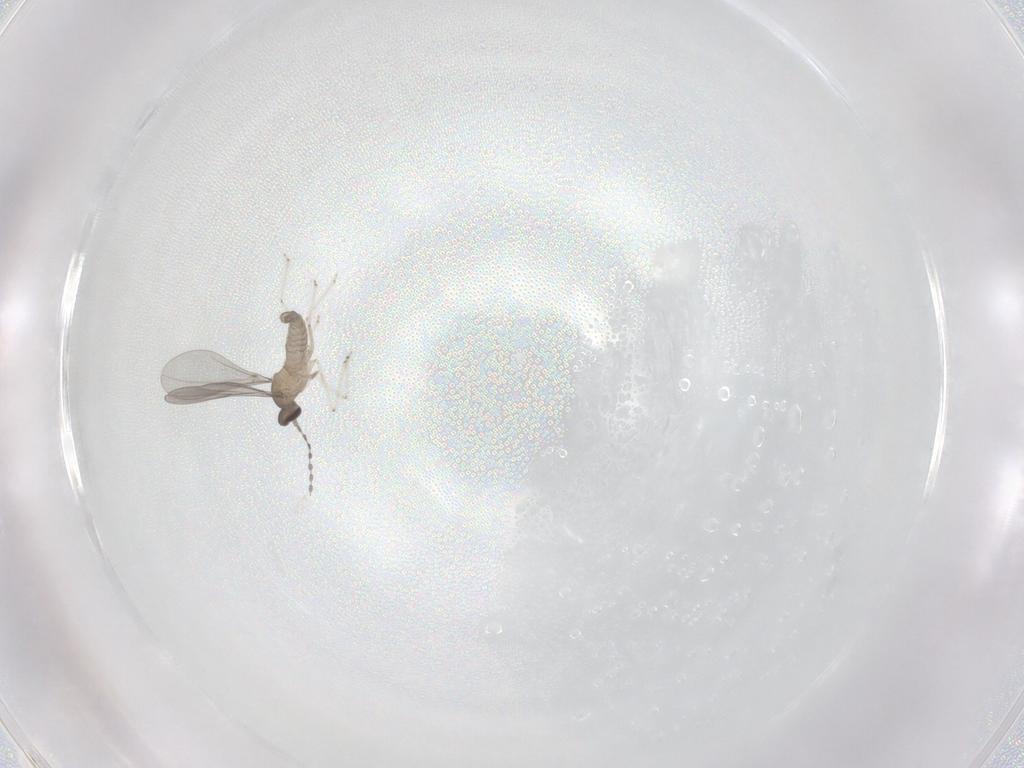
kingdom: Animalia
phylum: Arthropoda
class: Insecta
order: Diptera
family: Cecidomyiidae
